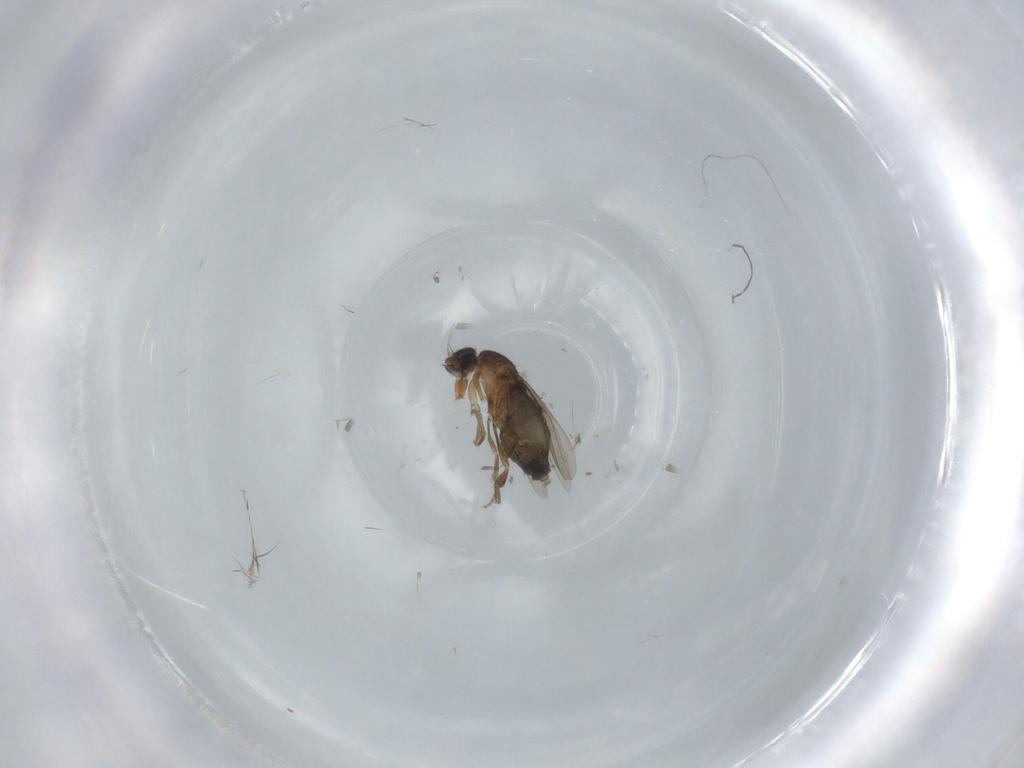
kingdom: Animalia
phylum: Arthropoda
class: Insecta
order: Diptera
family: Phoridae
